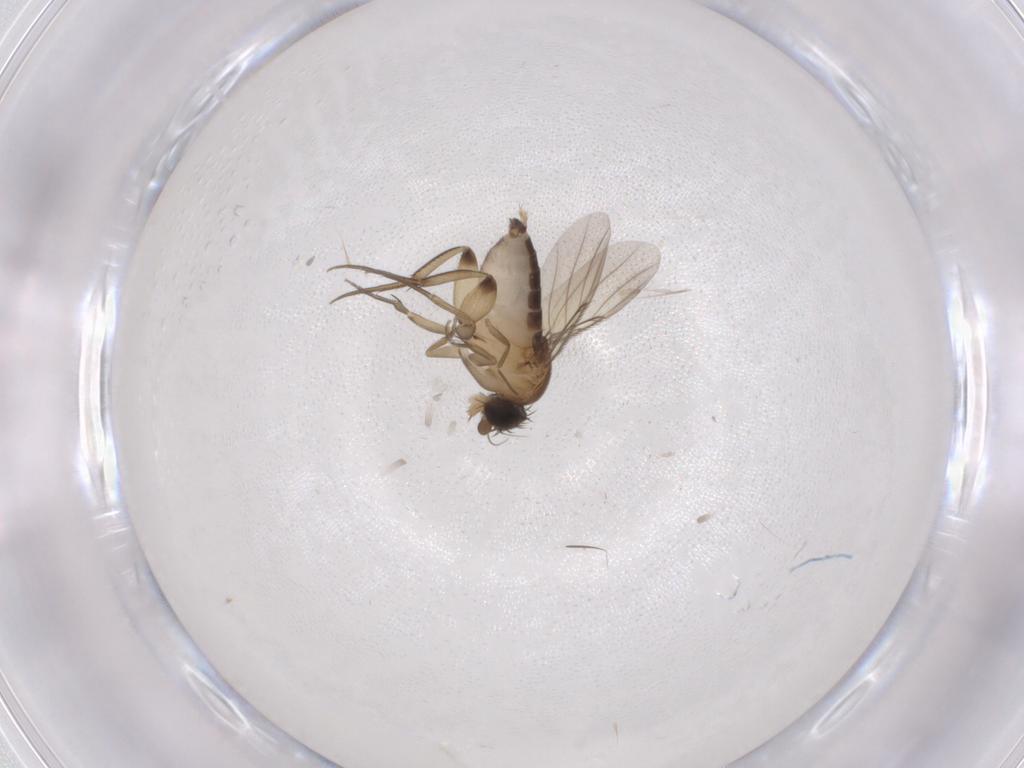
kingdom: Animalia
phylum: Arthropoda
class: Insecta
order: Diptera
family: Phoridae
